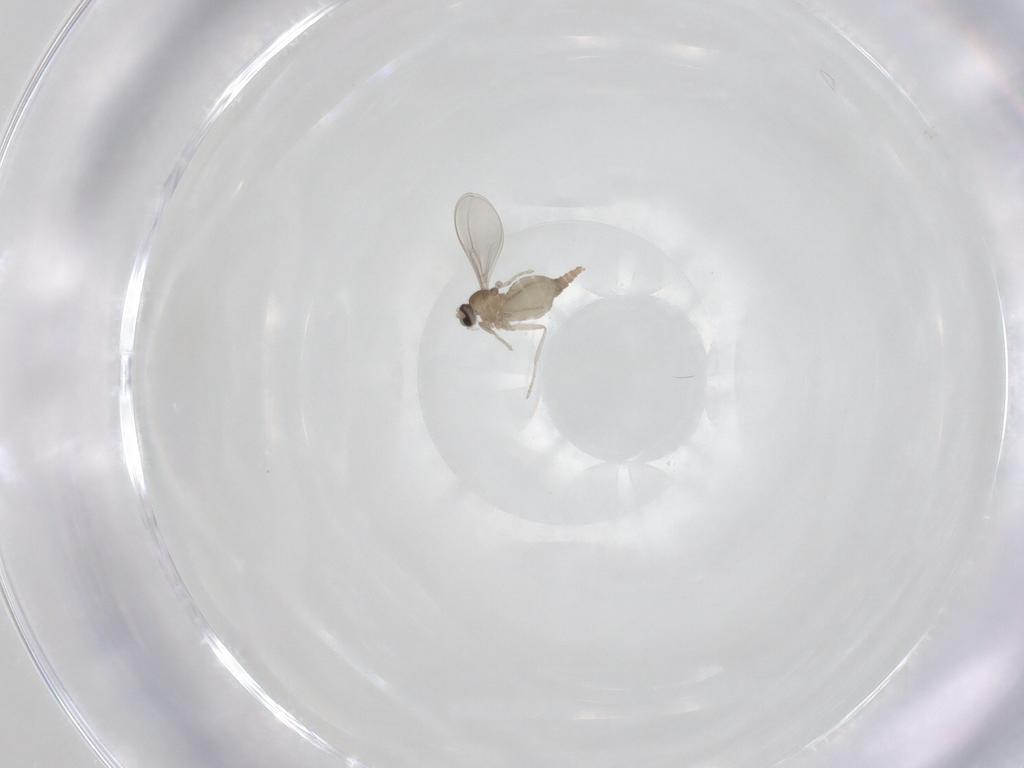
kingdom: Animalia
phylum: Arthropoda
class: Insecta
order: Diptera
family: Cecidomyiidae
